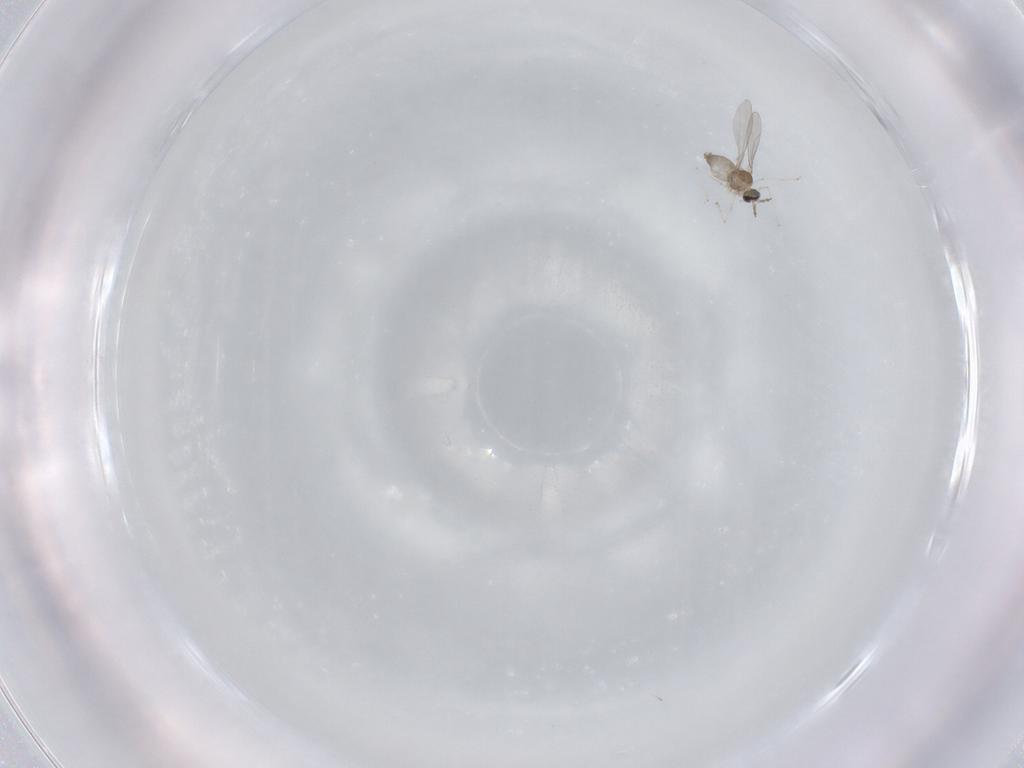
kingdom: Animalia
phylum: Arthropoda
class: Insecta
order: Diptera
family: Cecidomyiidae
